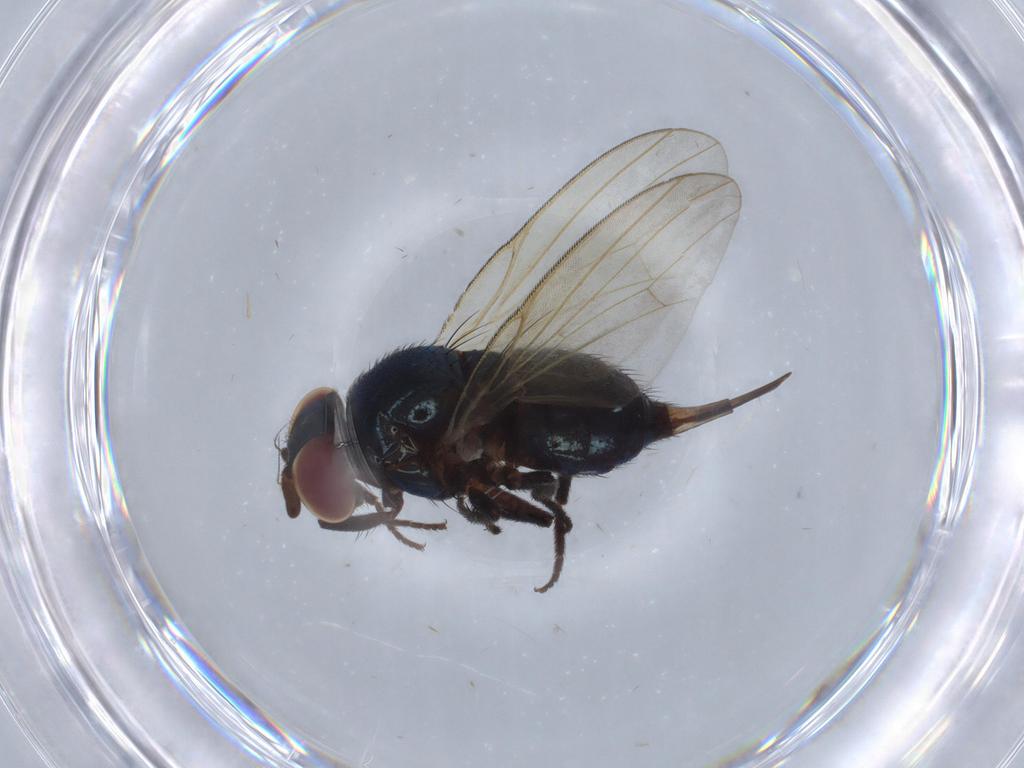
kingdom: Animalia
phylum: Arthropoda
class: Insecta
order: Diptera
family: Psychodidae
